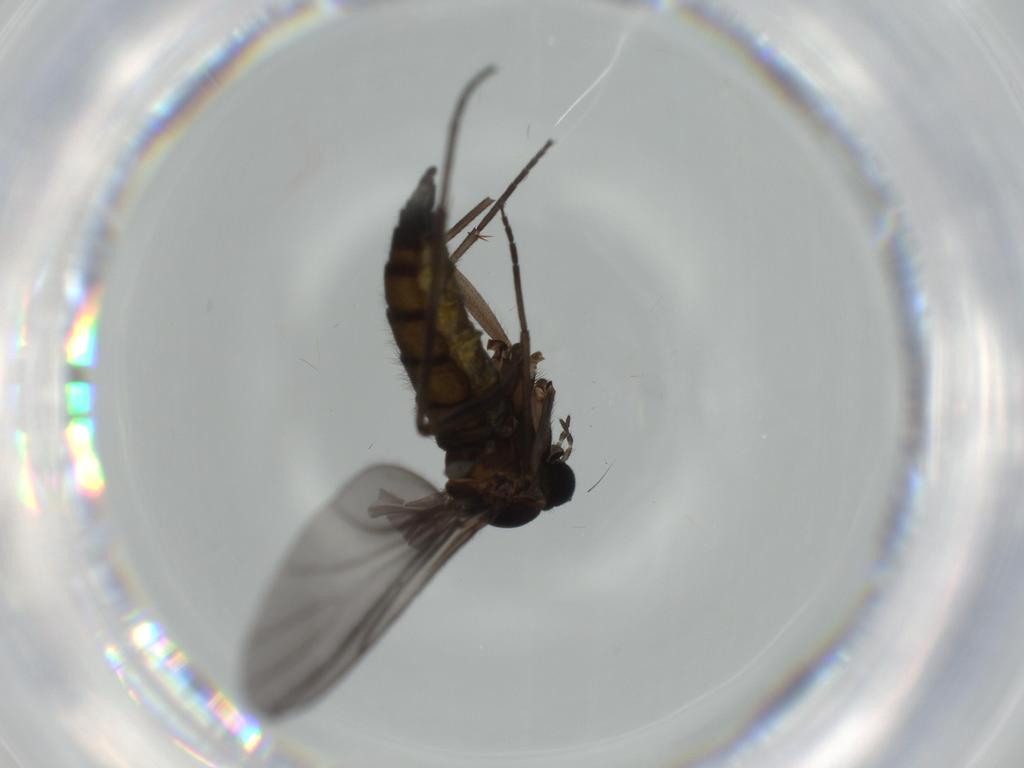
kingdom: Animalia
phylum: Arthropoda
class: Insecta
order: Diptera
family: Sciaridae
